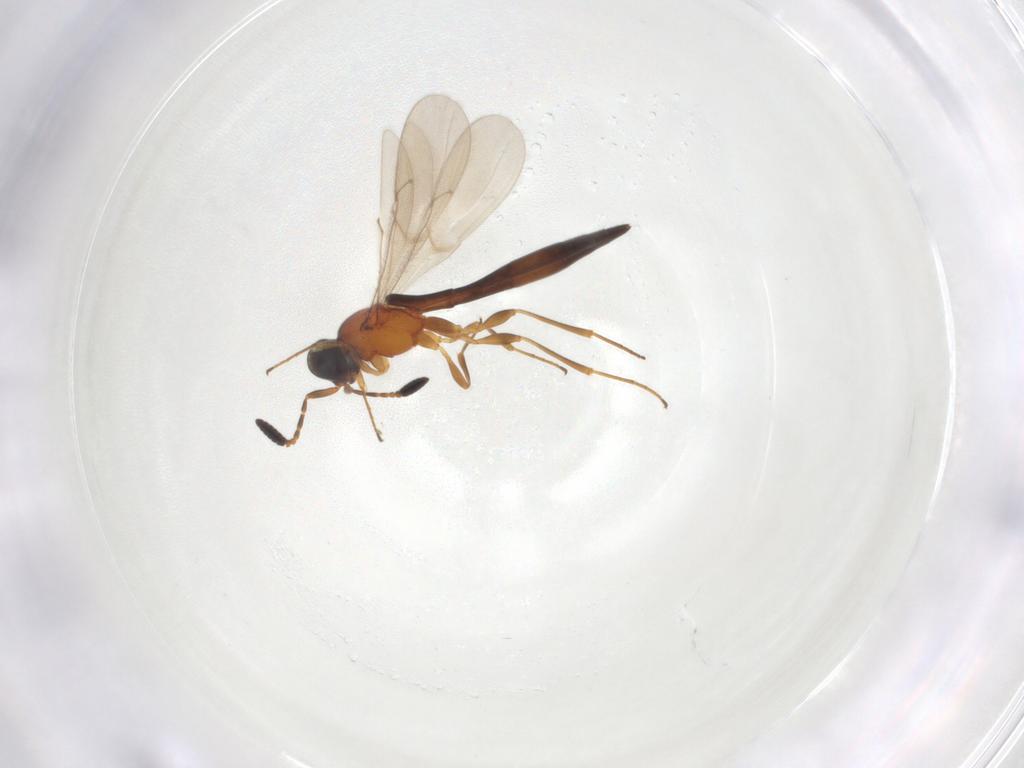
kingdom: Animalia
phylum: Arthropoda
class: Insecta
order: Hymenoptera
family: Scelionidae
